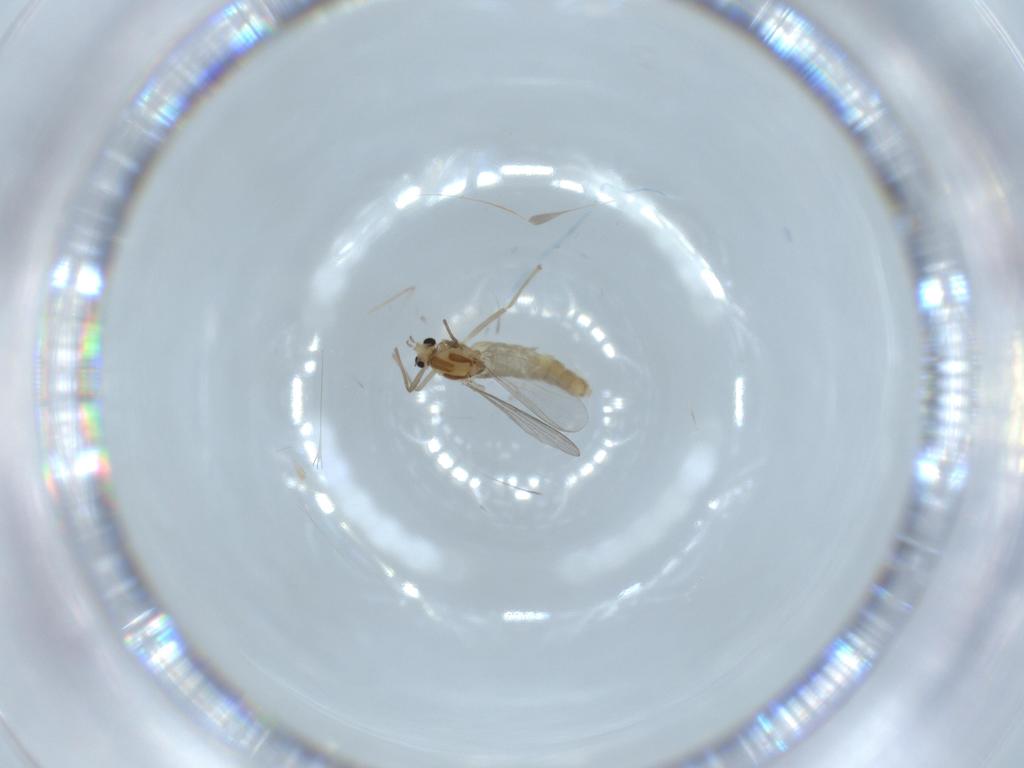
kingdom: Animalia
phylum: Arthropoda
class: Insecta
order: Diptera
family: Chironomidae
